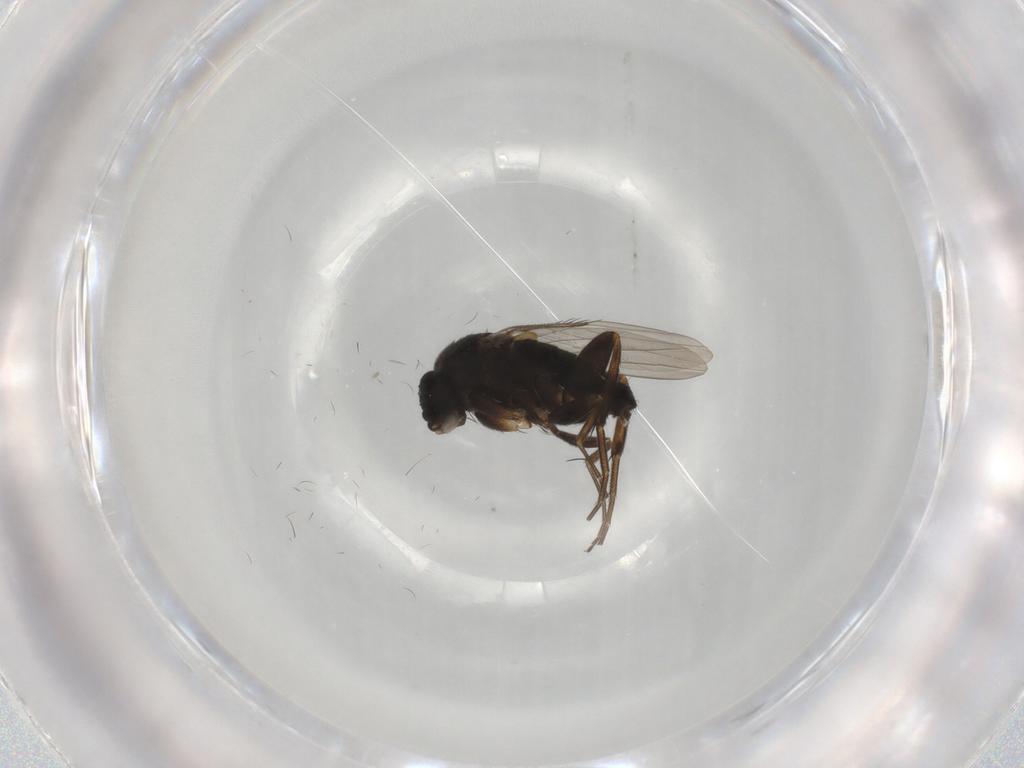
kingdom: Animalia
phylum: Arthropoda
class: Insecta
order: Diptera
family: Phoridae
